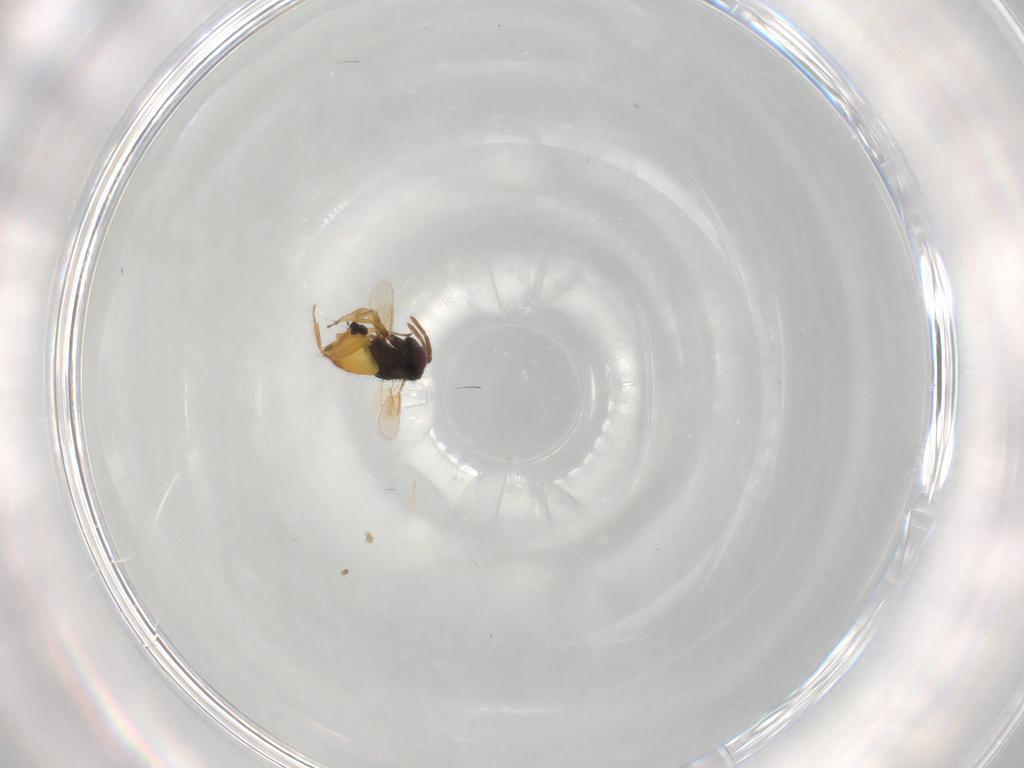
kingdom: Animalia
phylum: Arthropoda
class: Insecta
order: Hymenoptera
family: Aphelinidae
